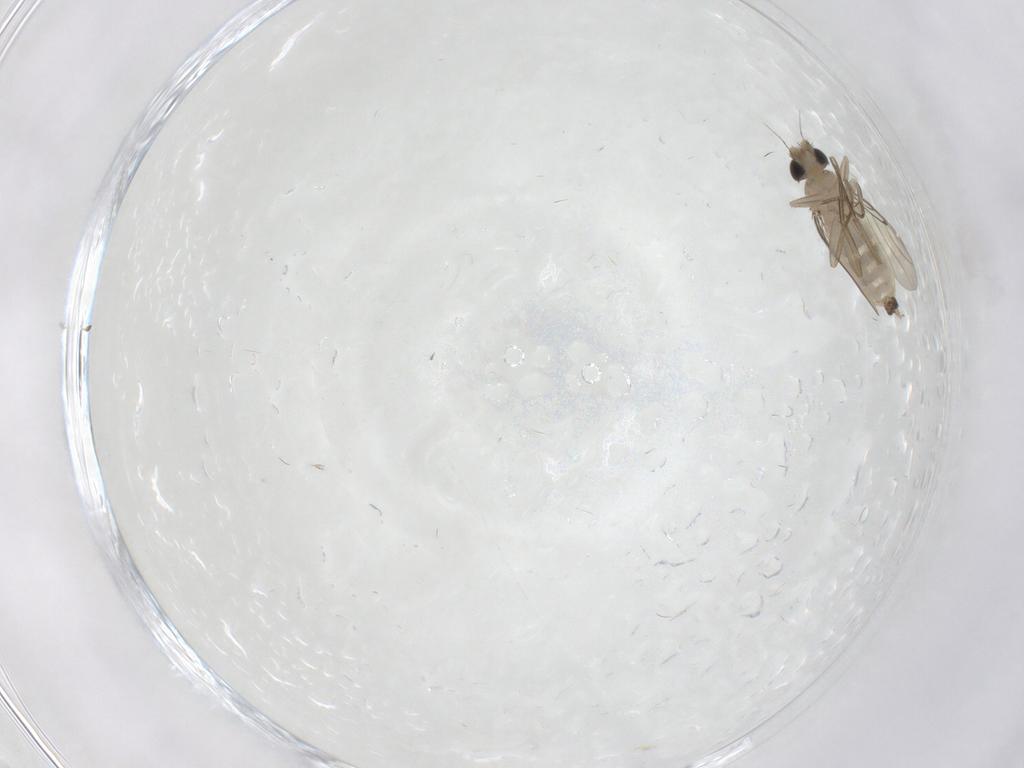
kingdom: Animalia
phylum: Arthropoda
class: Insecta
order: Diptera
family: Phoridae
